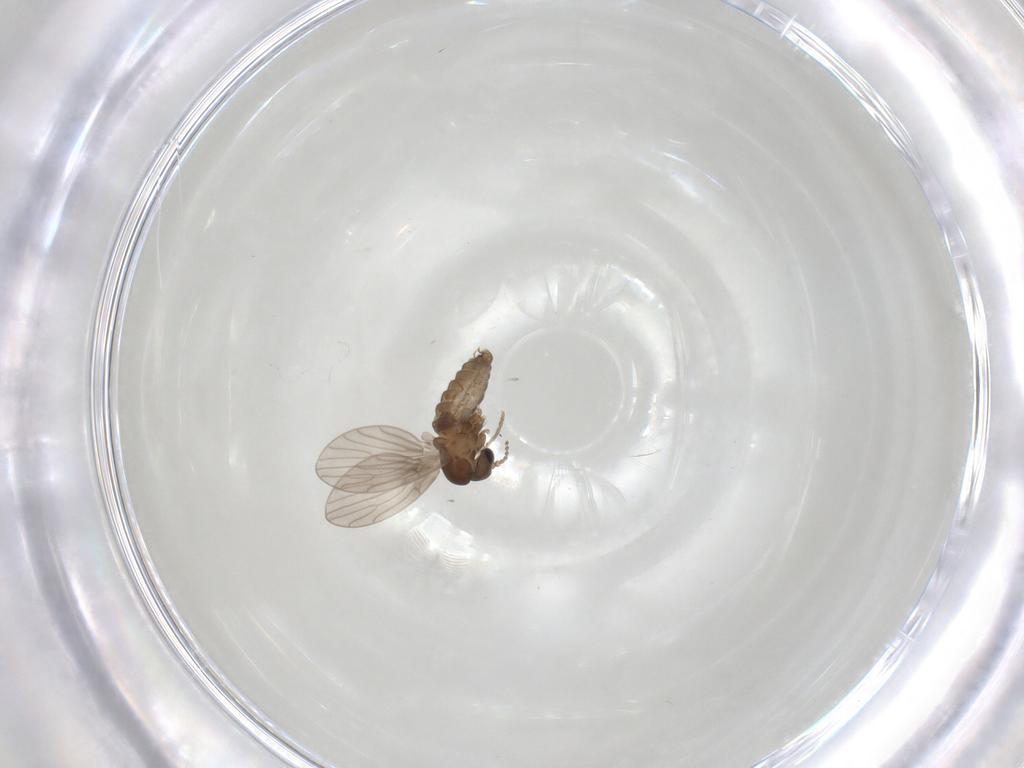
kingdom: Animalia
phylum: Arthropoda
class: Insecta
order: Diptera
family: Psychodidae
